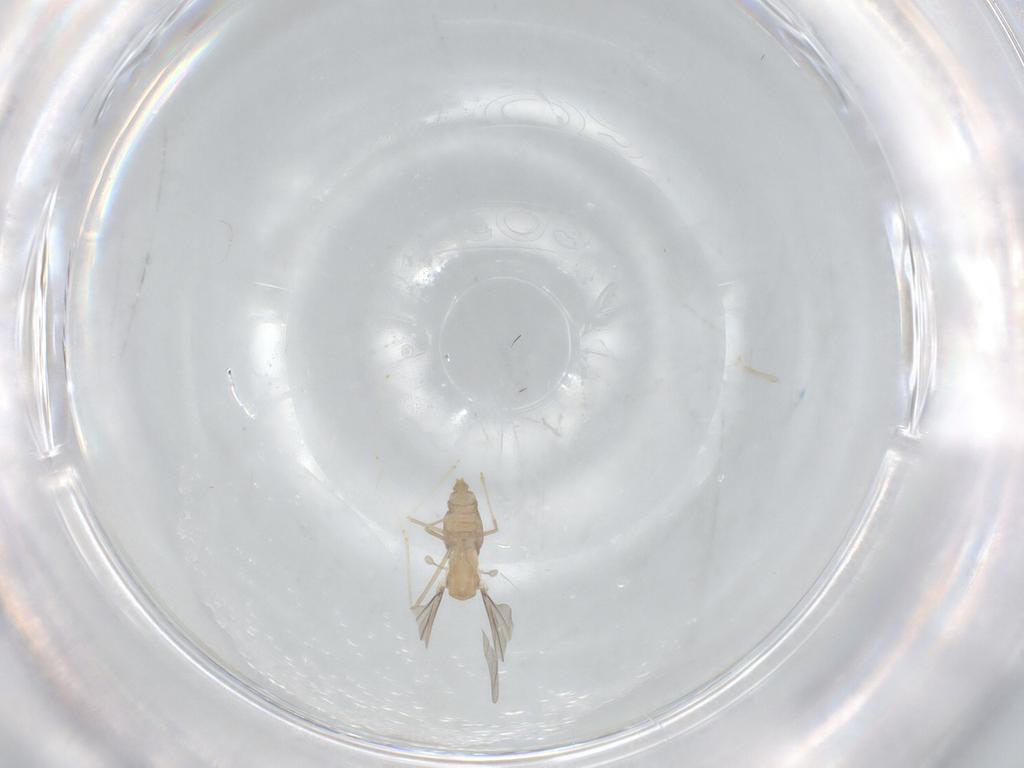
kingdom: Animalia
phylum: Arthropoda
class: Insecta
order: Diptera
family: Cecidomyiidae
